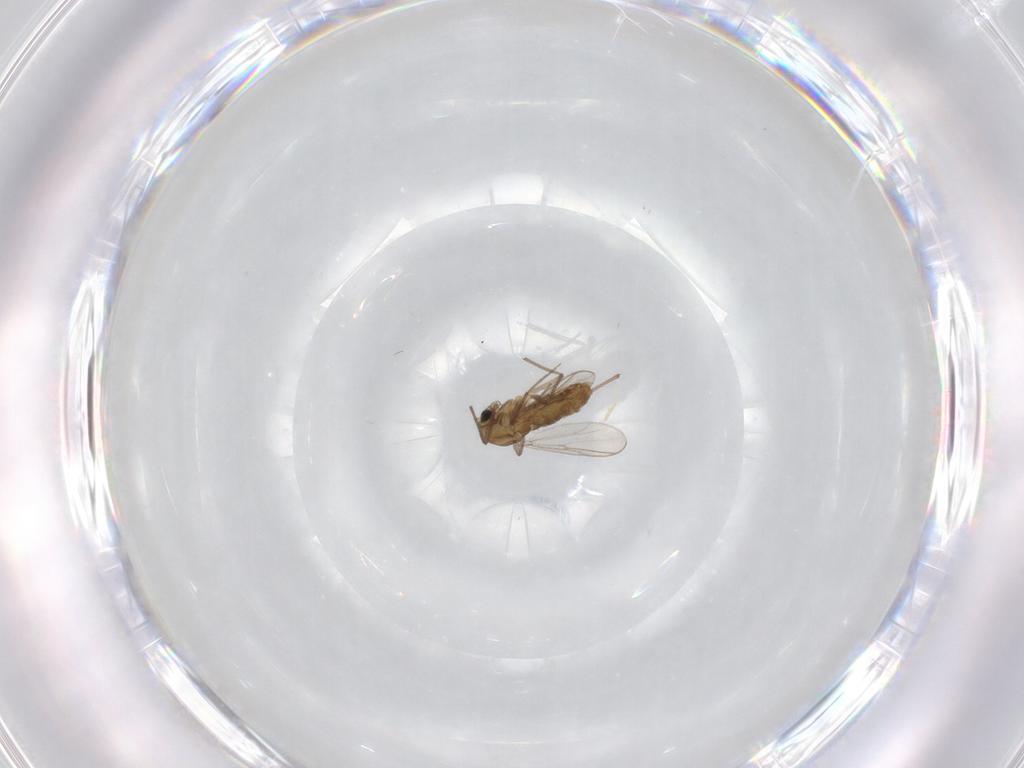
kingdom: Animalia
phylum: Arthropoda
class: Insecta
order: Diptera
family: Chironomidae
